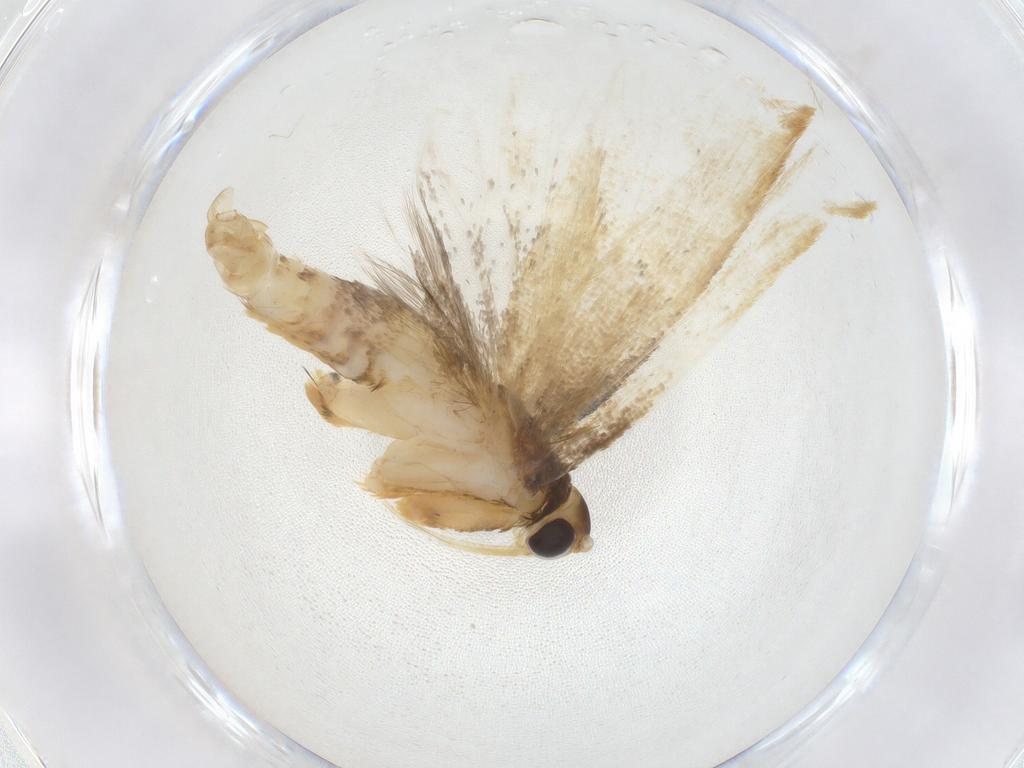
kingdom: Animalia
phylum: Arthropoda
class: Insecta
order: Lepidoptera
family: Lecithoceridae
